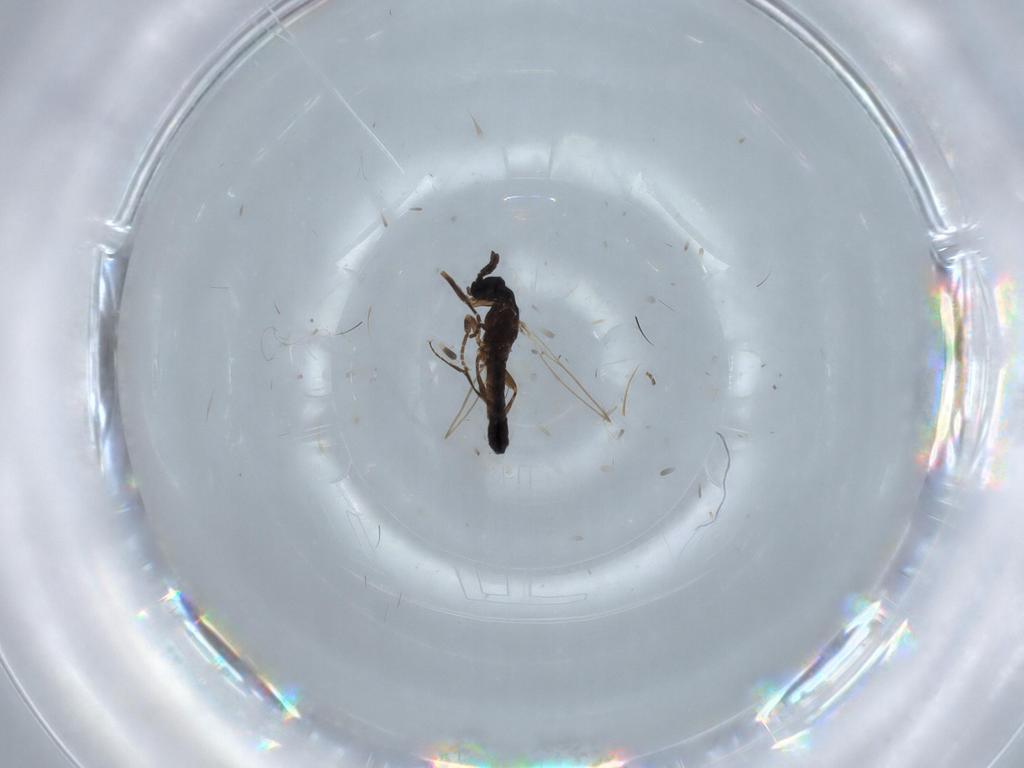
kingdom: Animalia
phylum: Arthropoda
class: Insecta
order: Diptera
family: Scatopsidae
